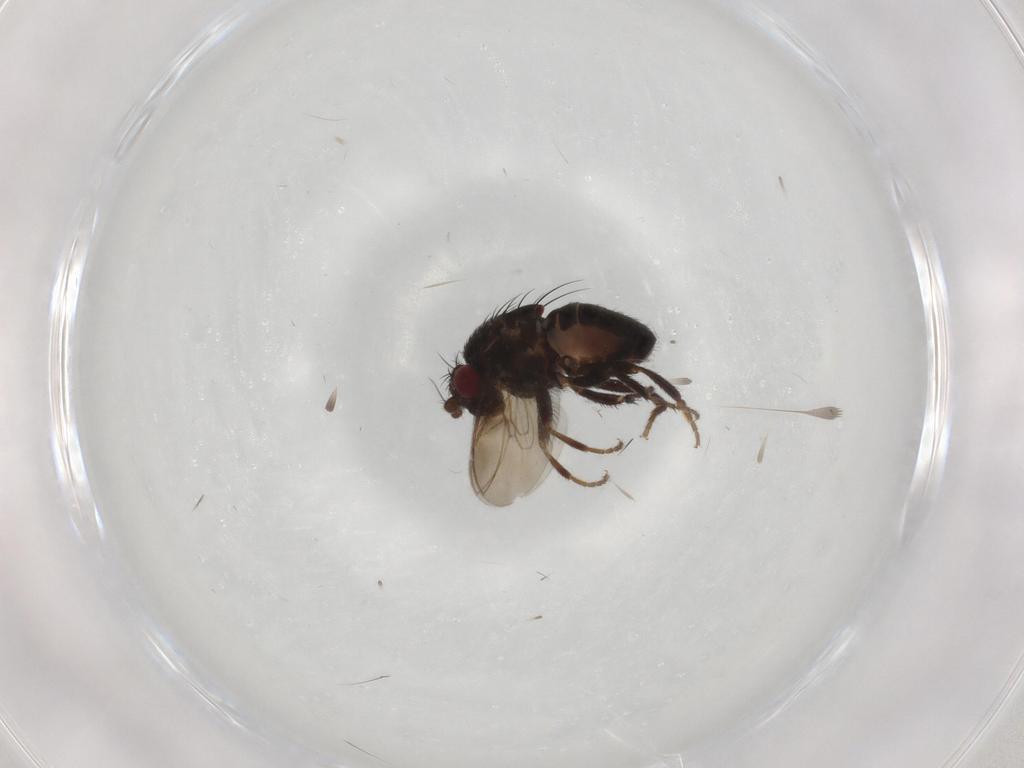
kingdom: Animalia
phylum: Arthropoda
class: Insecta
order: Diptera
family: Sphaeroceridae
